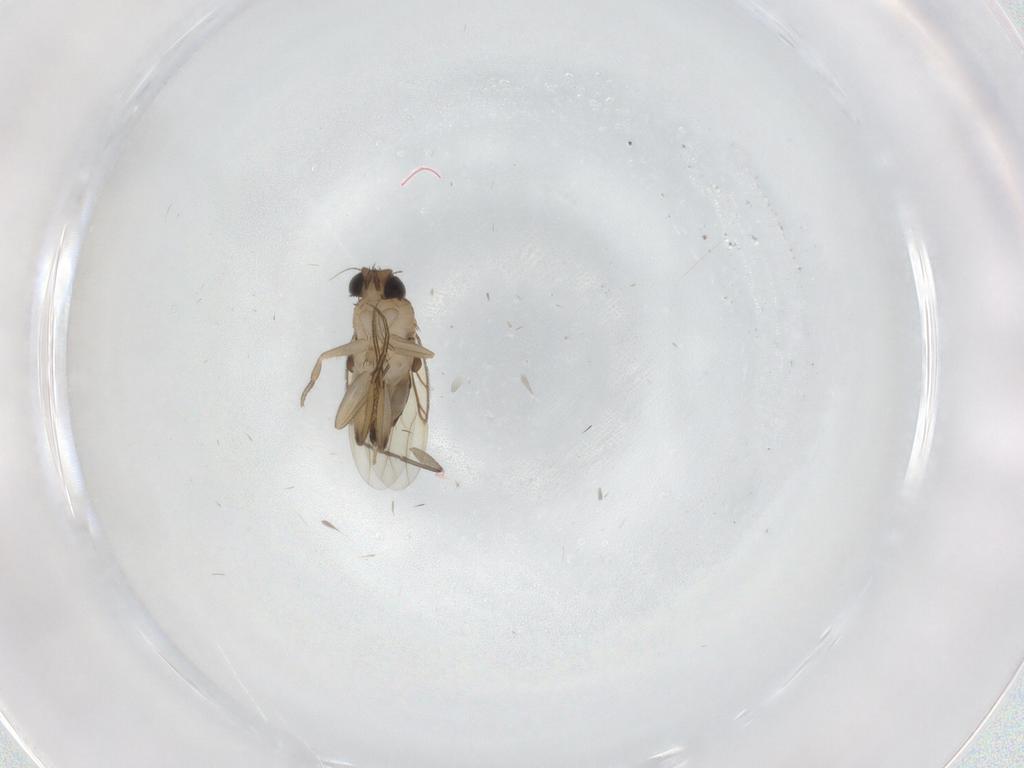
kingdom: Animalia
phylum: Arthropoda
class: Insecta
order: Diptera
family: Phoridae
